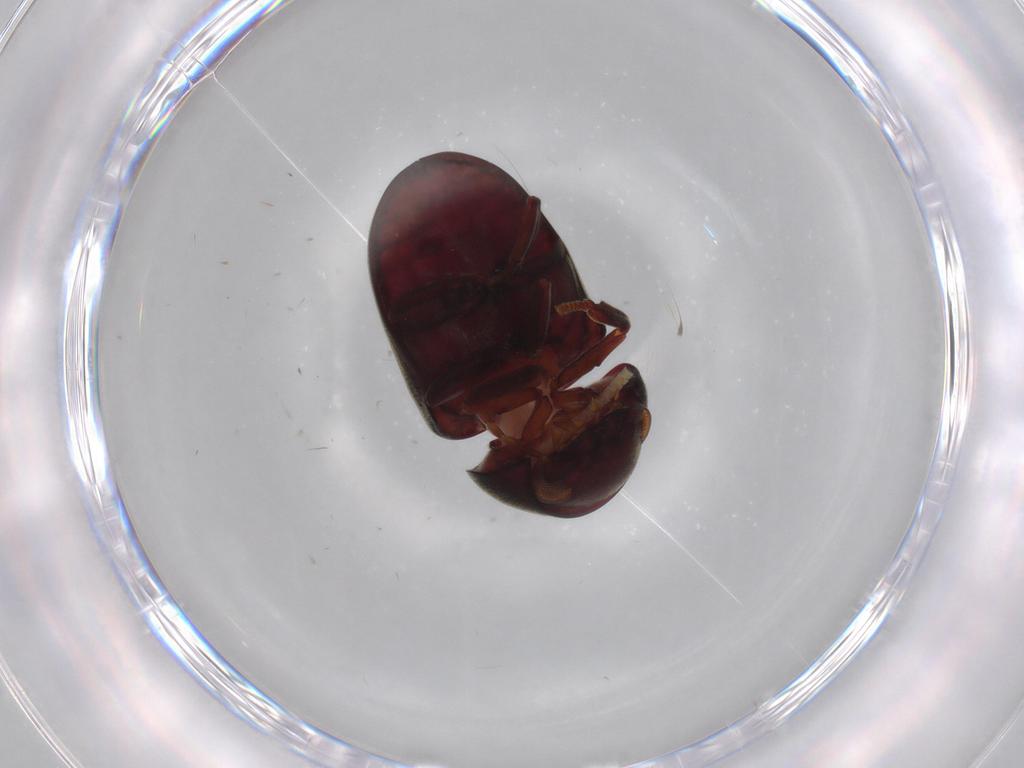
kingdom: Animalia
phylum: Arthropoda
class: Insecta
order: Coleoptera
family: Ptinidae
